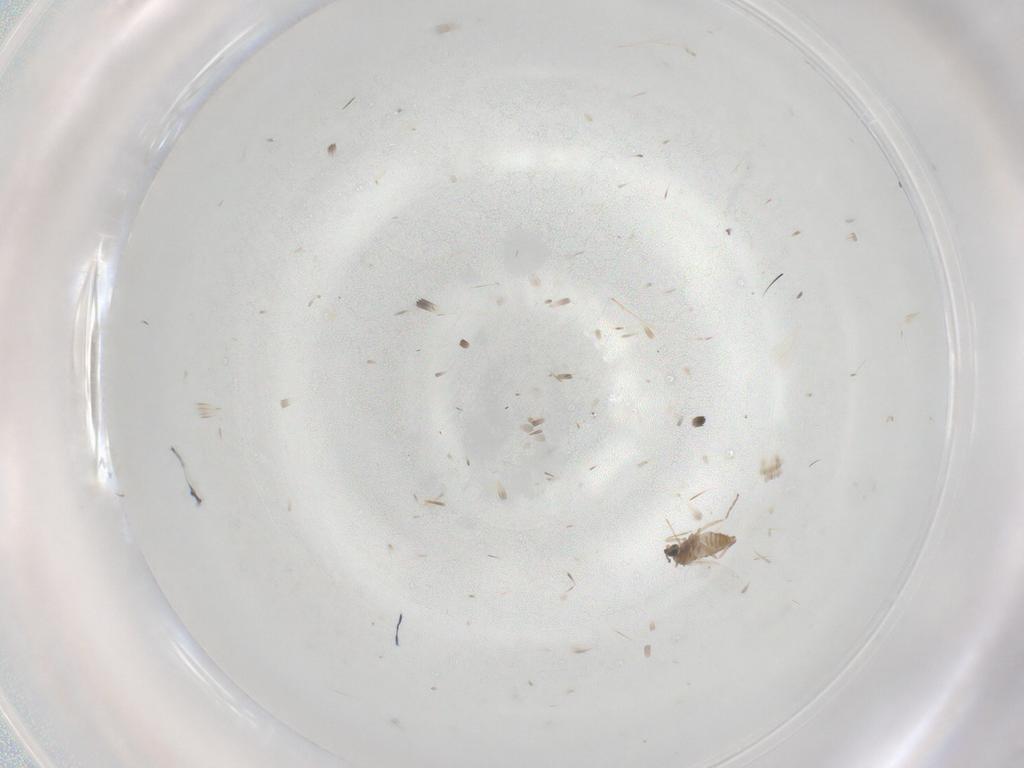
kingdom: Animalia
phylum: Arthropoda
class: Insecta
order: Diptera
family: Cecidomyiidae
